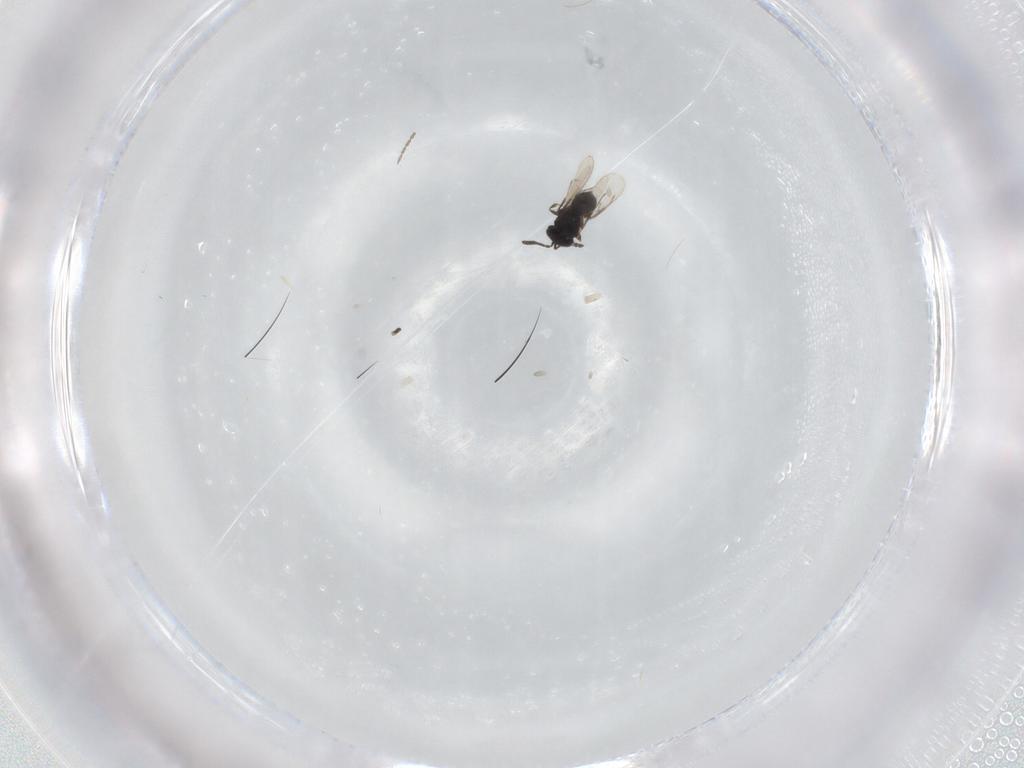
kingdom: Animalia
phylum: Arthropoda
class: Insecta
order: Hymenoptera
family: Scelionidae
